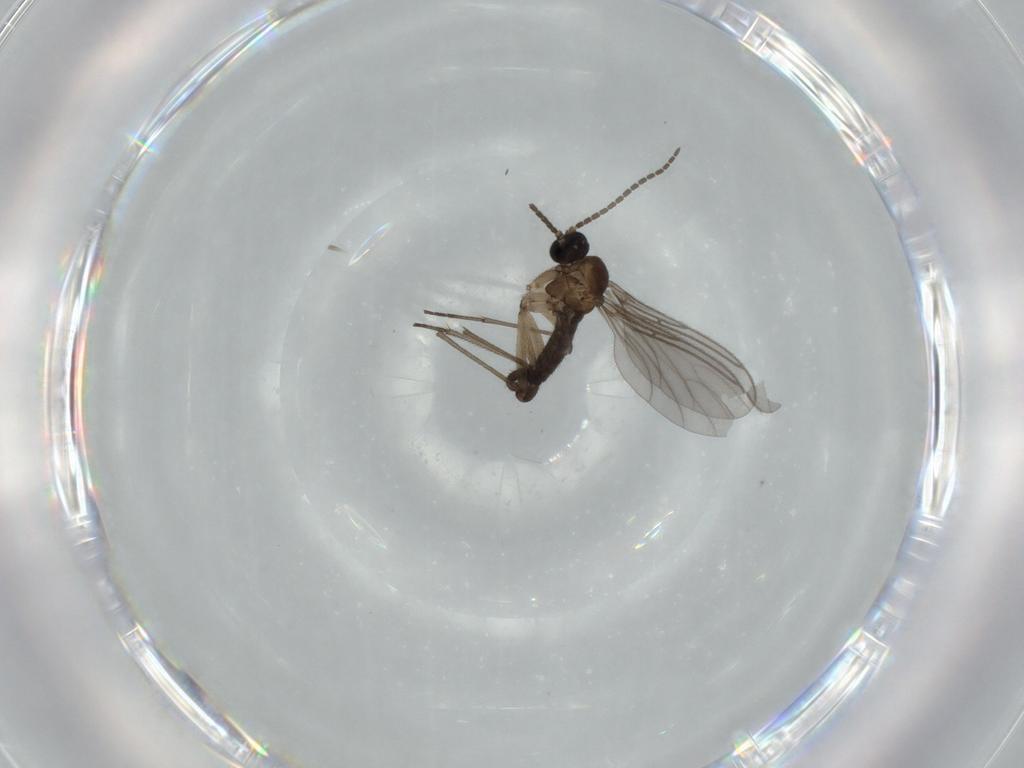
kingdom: Animalia
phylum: Arthropoda
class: Insecta
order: Diptera
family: Sciaridae
